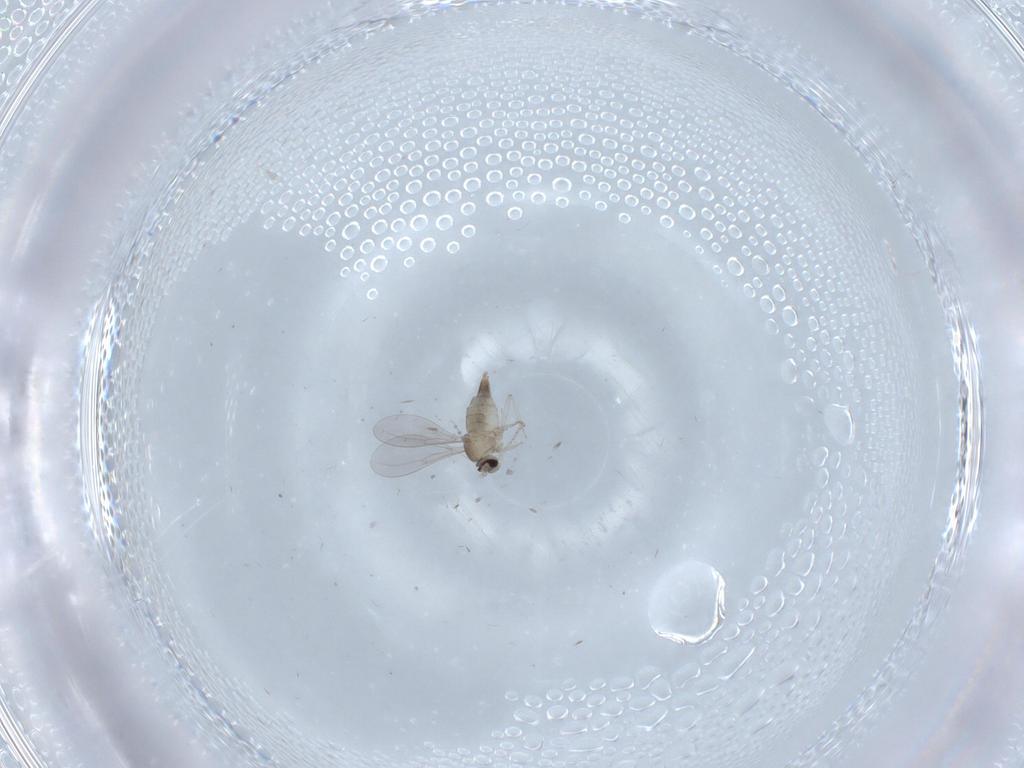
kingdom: Animalia
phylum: Arthropoda
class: Insecta
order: Diptera
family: Cecidomyiidae
